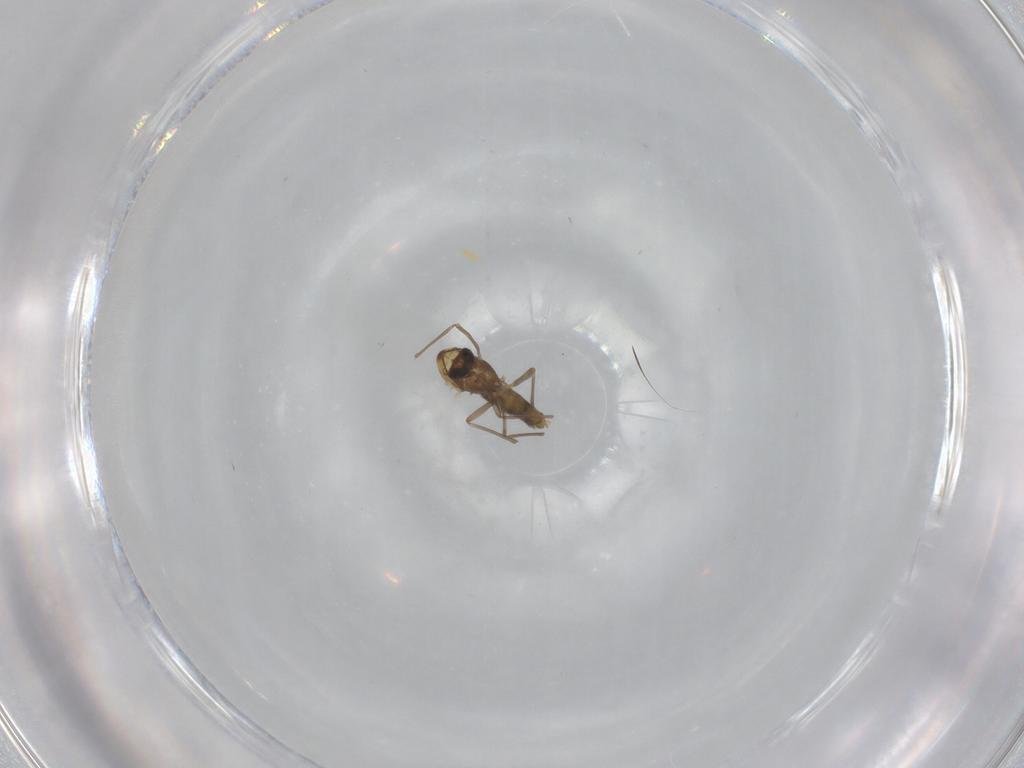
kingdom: Animalia
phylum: Arthropoda
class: Insecta
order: Diptera
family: Chironomidae
